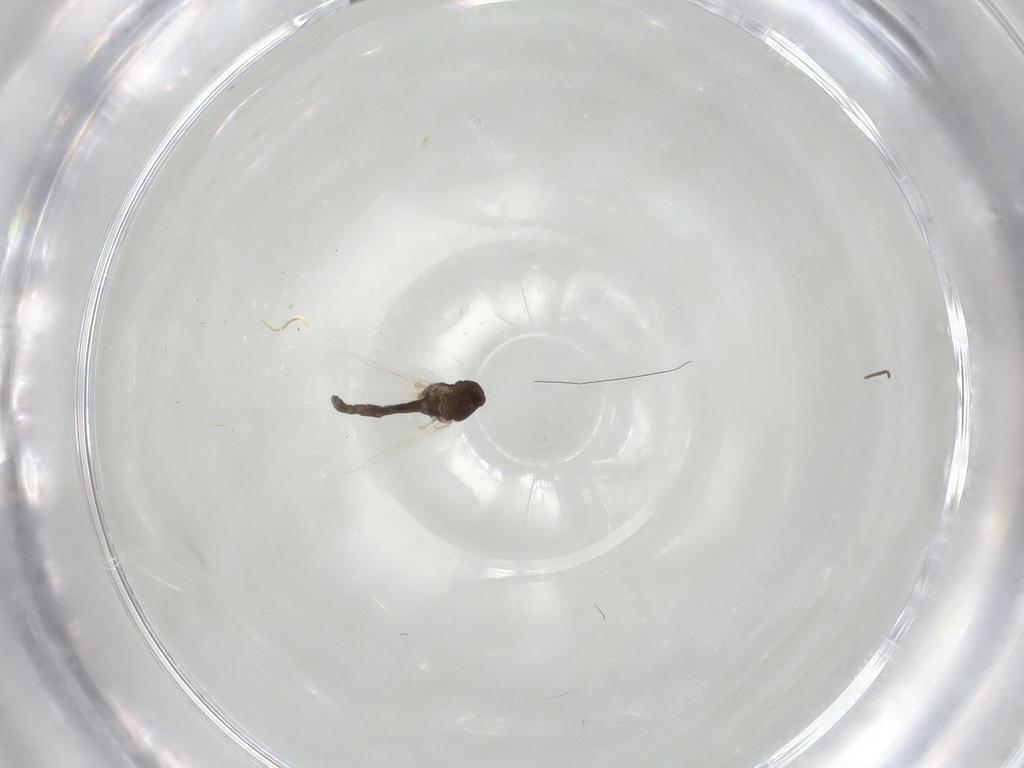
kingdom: Animalia
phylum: Arthropoda
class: Insecta
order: Diptera
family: Chironomidae
